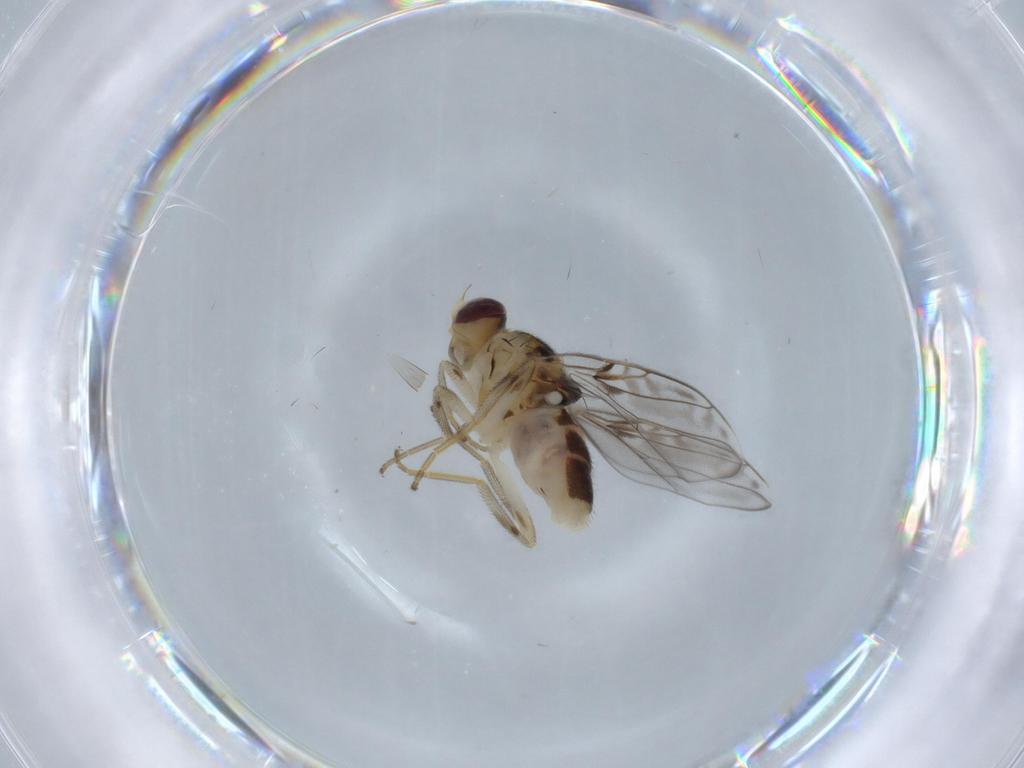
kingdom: Animalia
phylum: Arthropoda
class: Insecta
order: Diptera
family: Chloropidae
